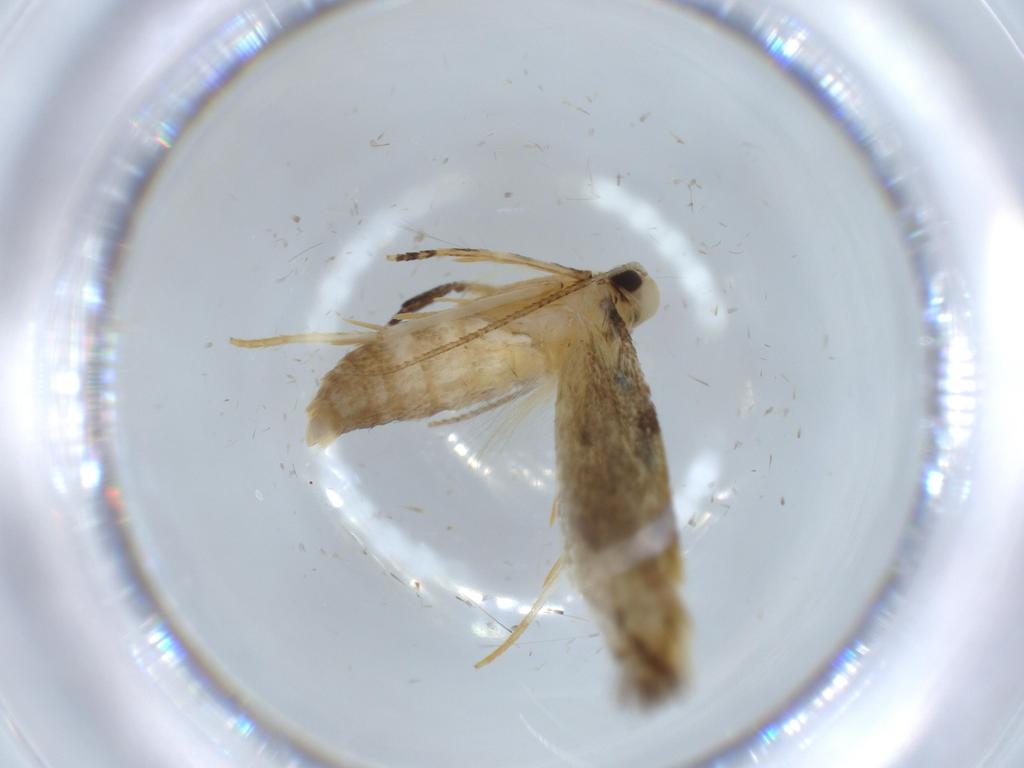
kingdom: Animalia
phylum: Arthropoda
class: Insecta
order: Lepidoptera
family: Autostichidae
